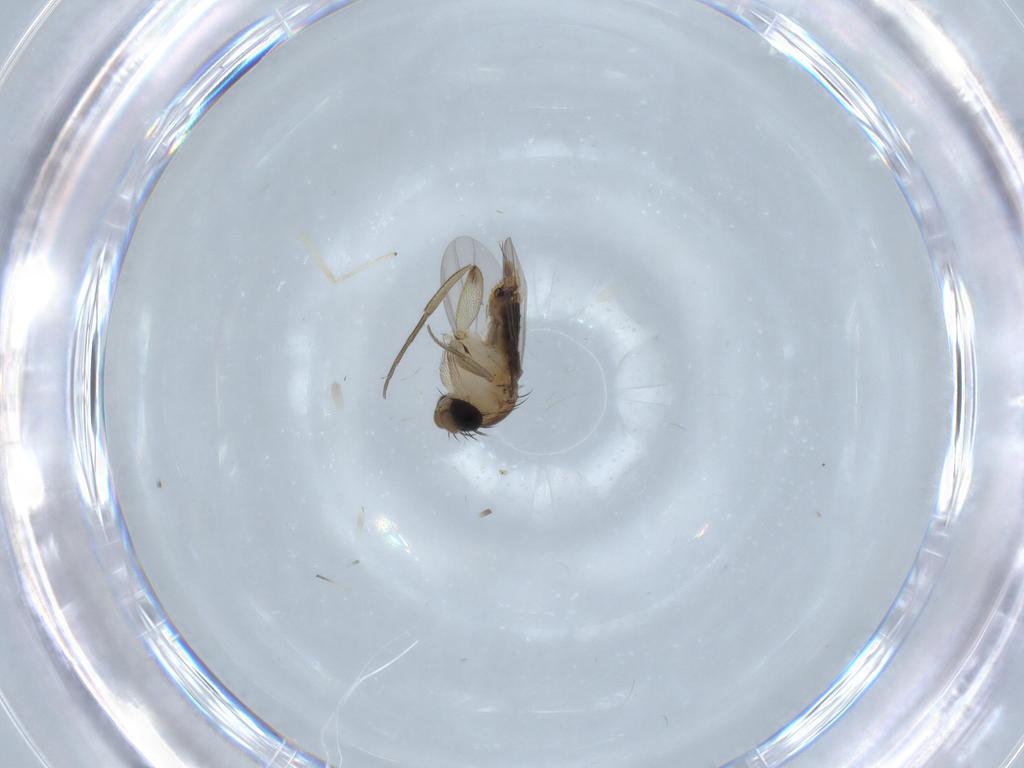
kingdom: Animalia
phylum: Arthropoda
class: Insecta
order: Diptera
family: Chironomidae
